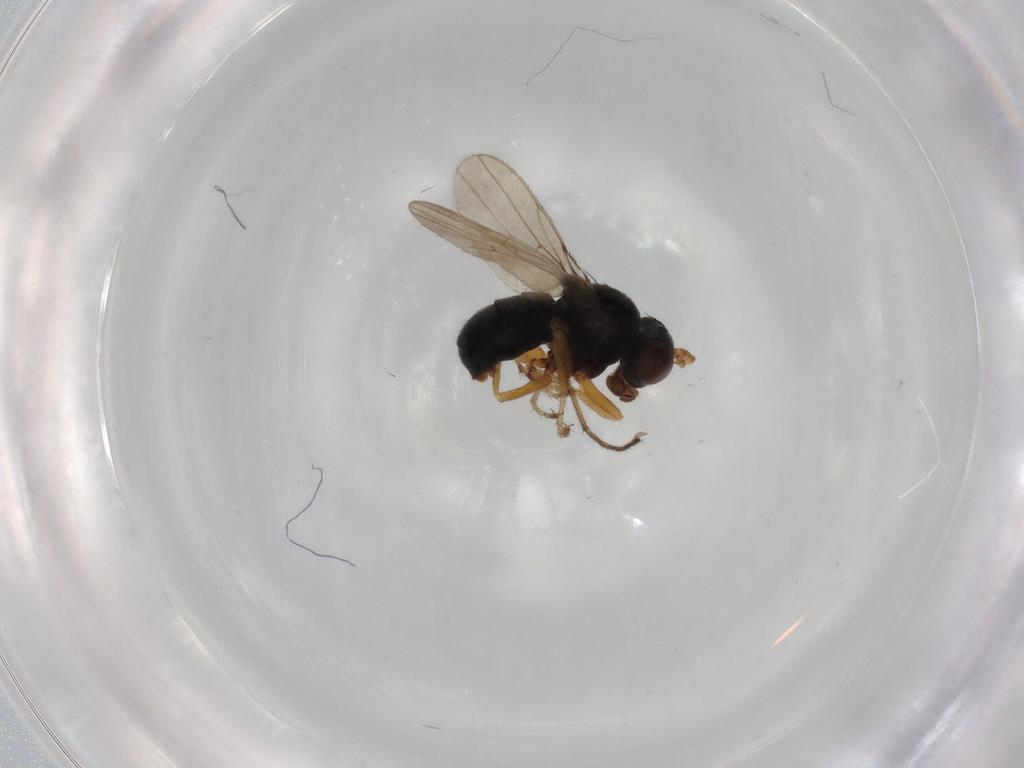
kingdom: Animalia
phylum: Arthropoda
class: Insecta
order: Diptera
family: Ephydridae
